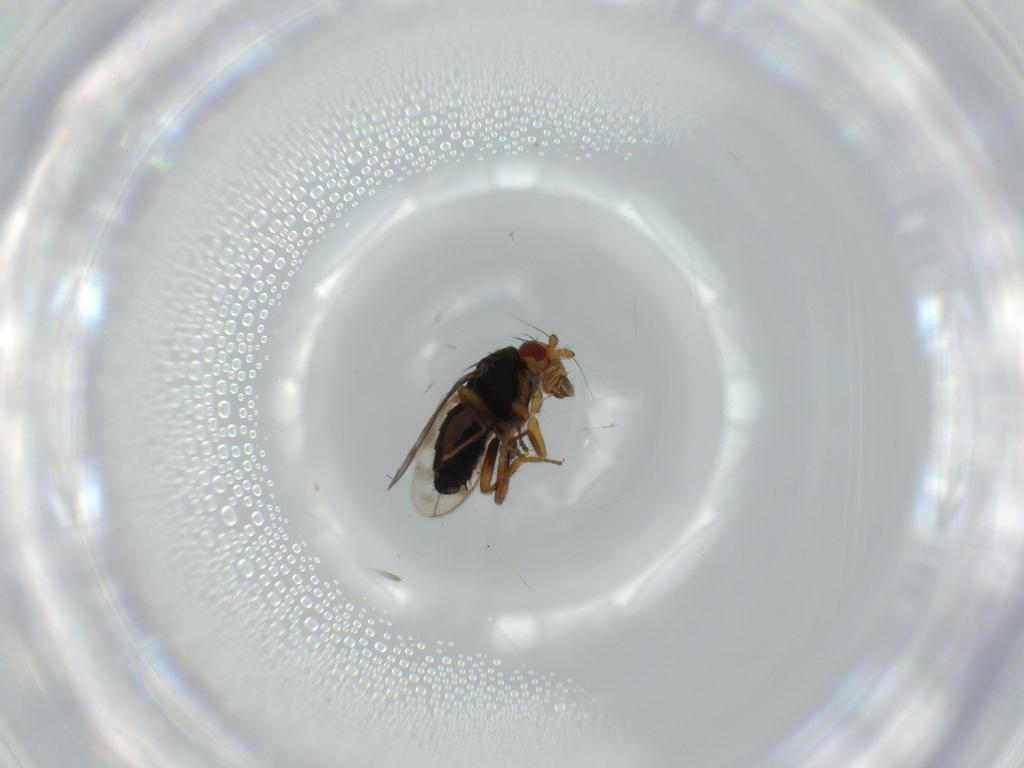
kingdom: Animalia
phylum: Arthropoda
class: Insecta
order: Diptera
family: Sphaeroceridae
